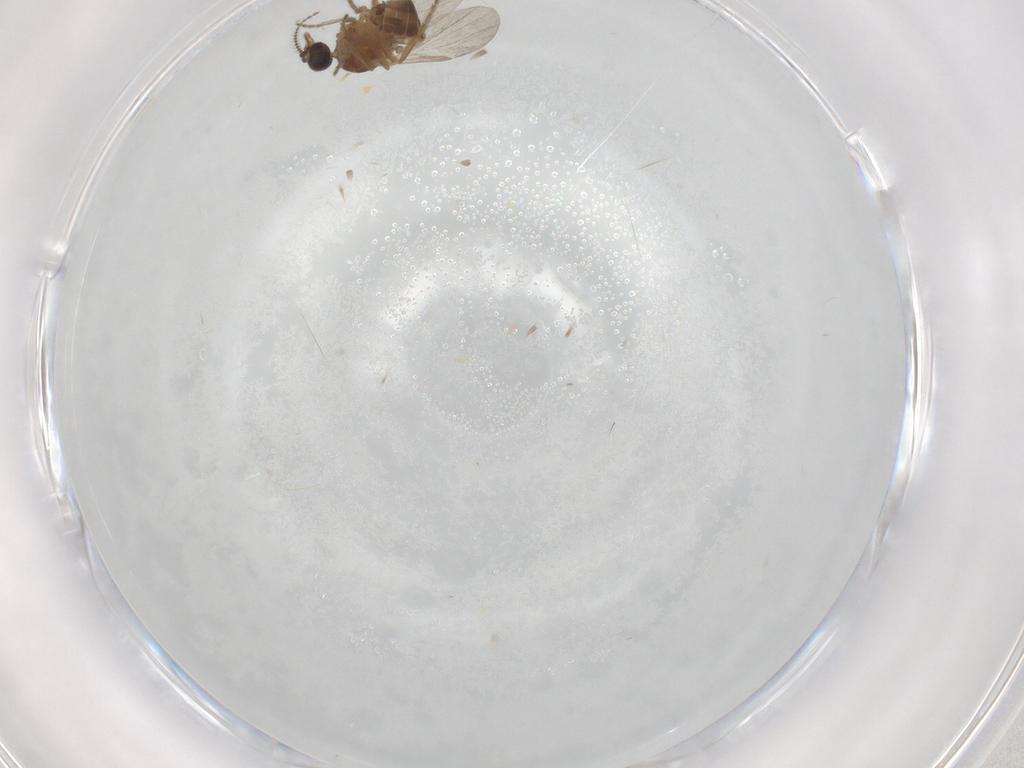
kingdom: Animalia
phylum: Arthropoda
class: Insecta
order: Diptera
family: Ceratopogonidae
